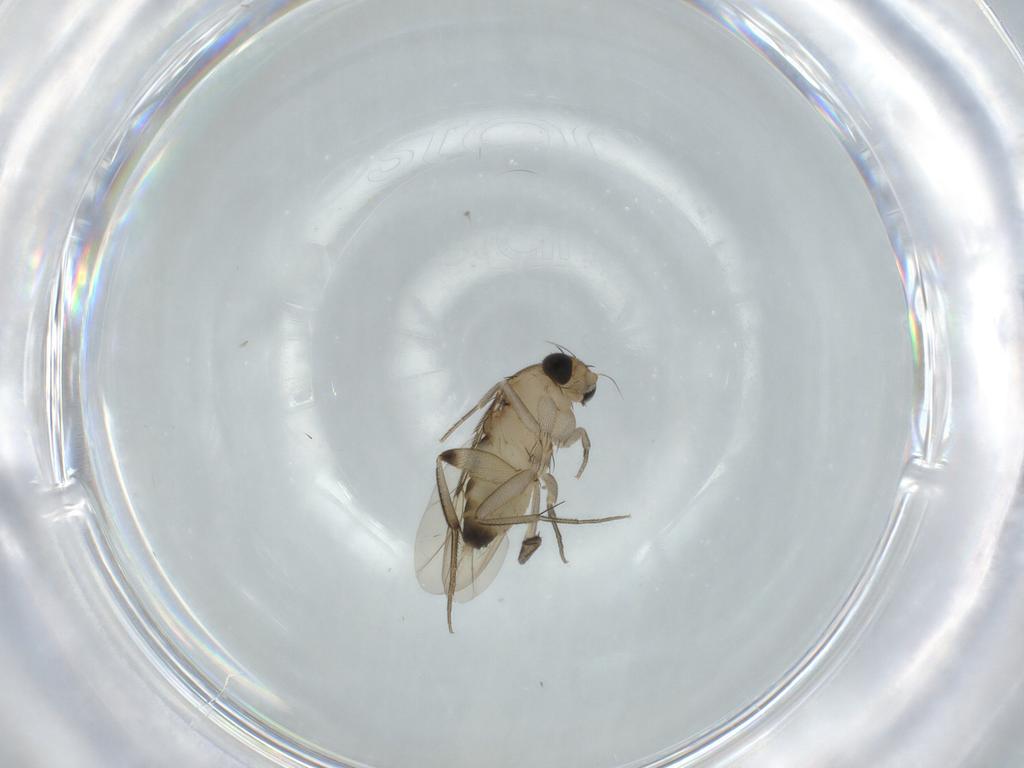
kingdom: Animalia
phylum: Arthropoda
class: Insecta
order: Diptera
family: Phoridae
